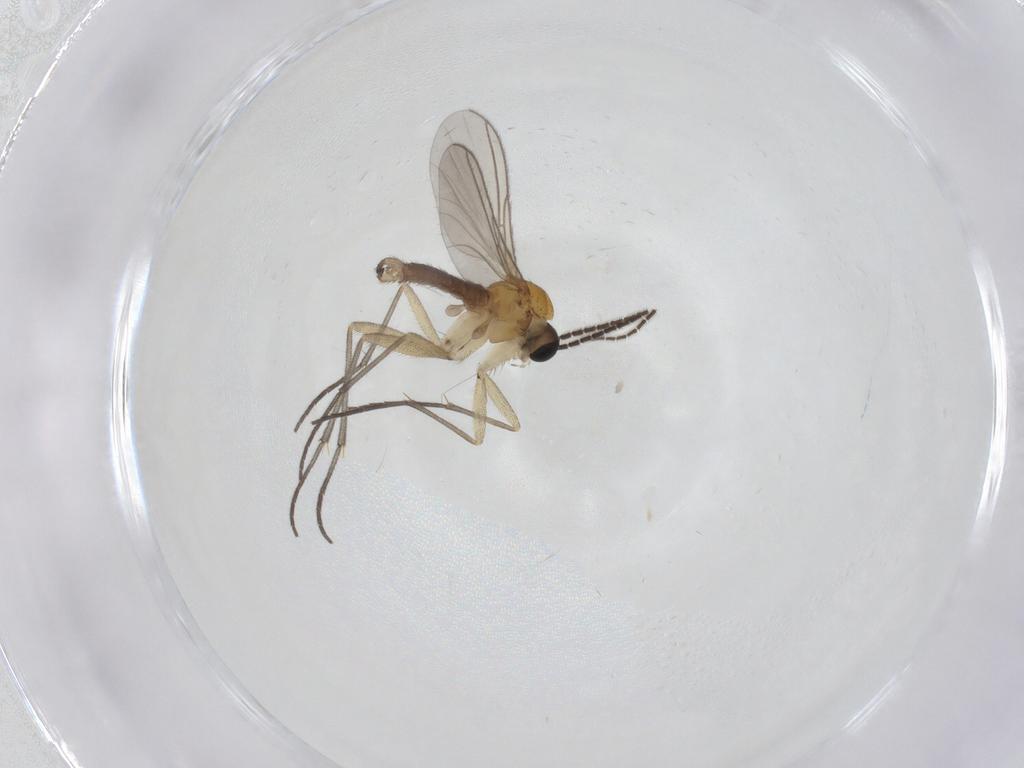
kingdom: Animalia
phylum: Arthropoda
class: Insecta
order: Diptera
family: Sciaridae
